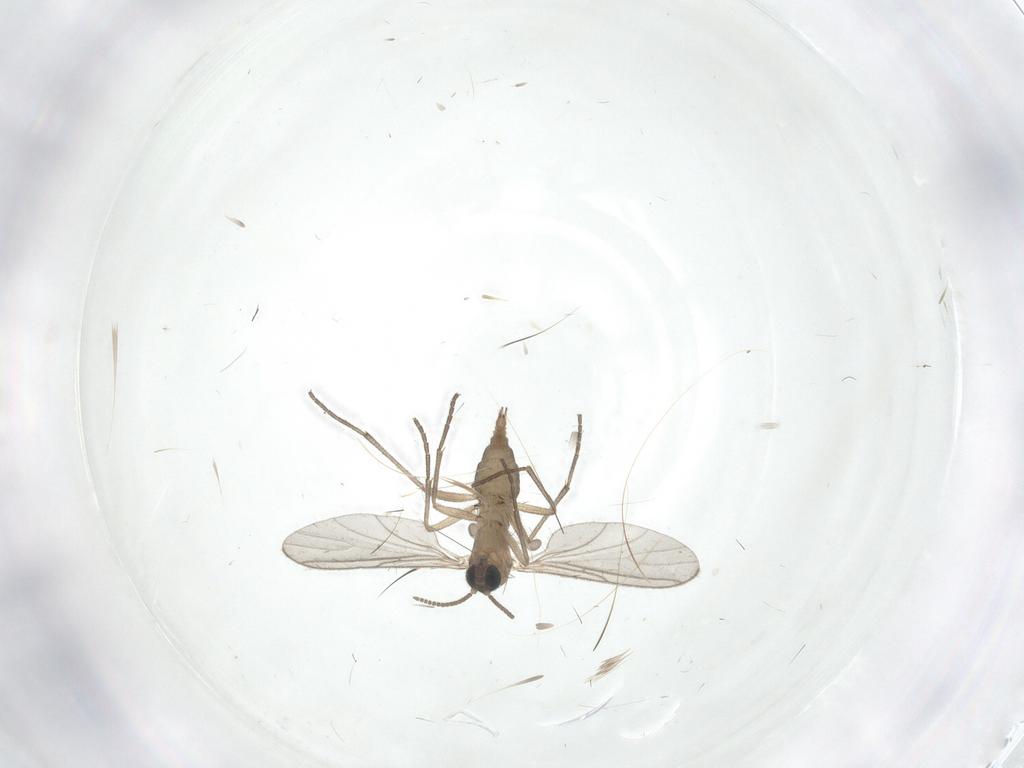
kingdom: Animalia
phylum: Arthropoda
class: Insecta
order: Diptera
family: Sciaridae
